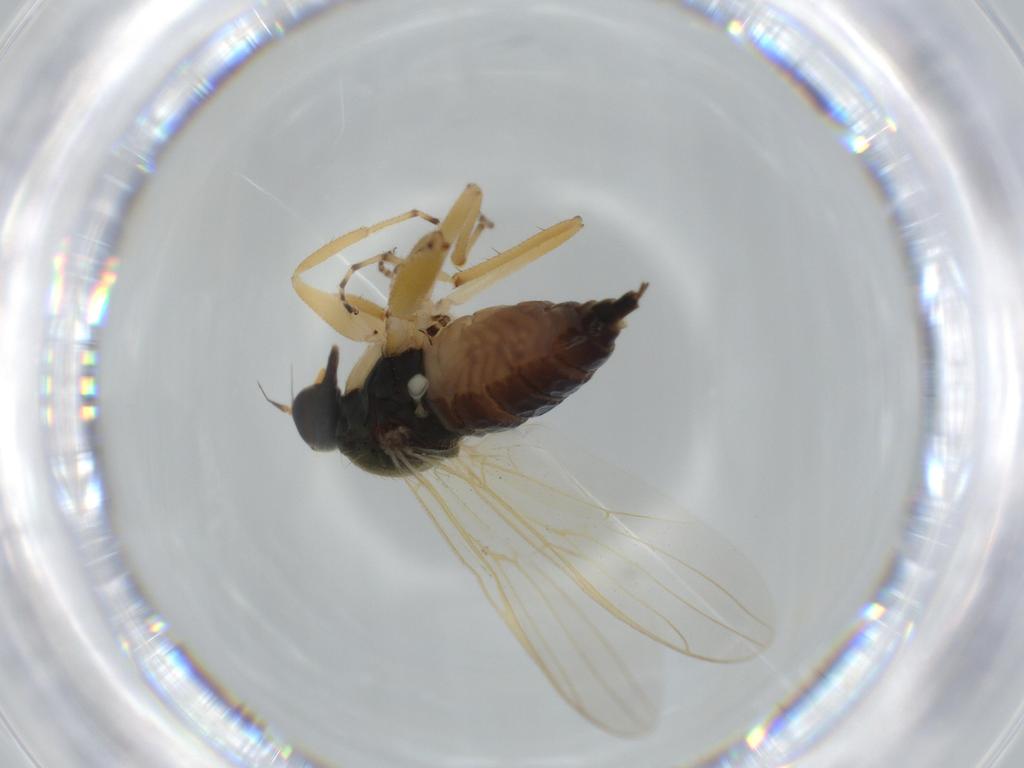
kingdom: Animalia
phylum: Arthropoda
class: Insecta
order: Diptera
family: Hybotidae
